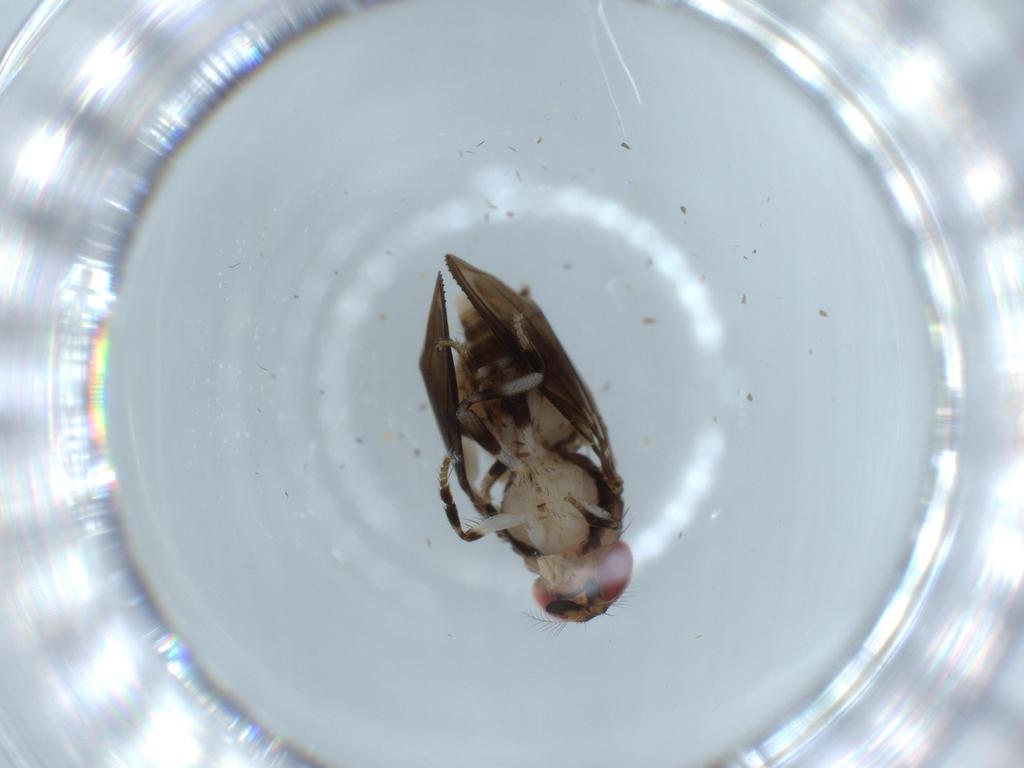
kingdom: Animalia
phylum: Arthropoda
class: Insecta
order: Diptera
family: Drosophilidae
